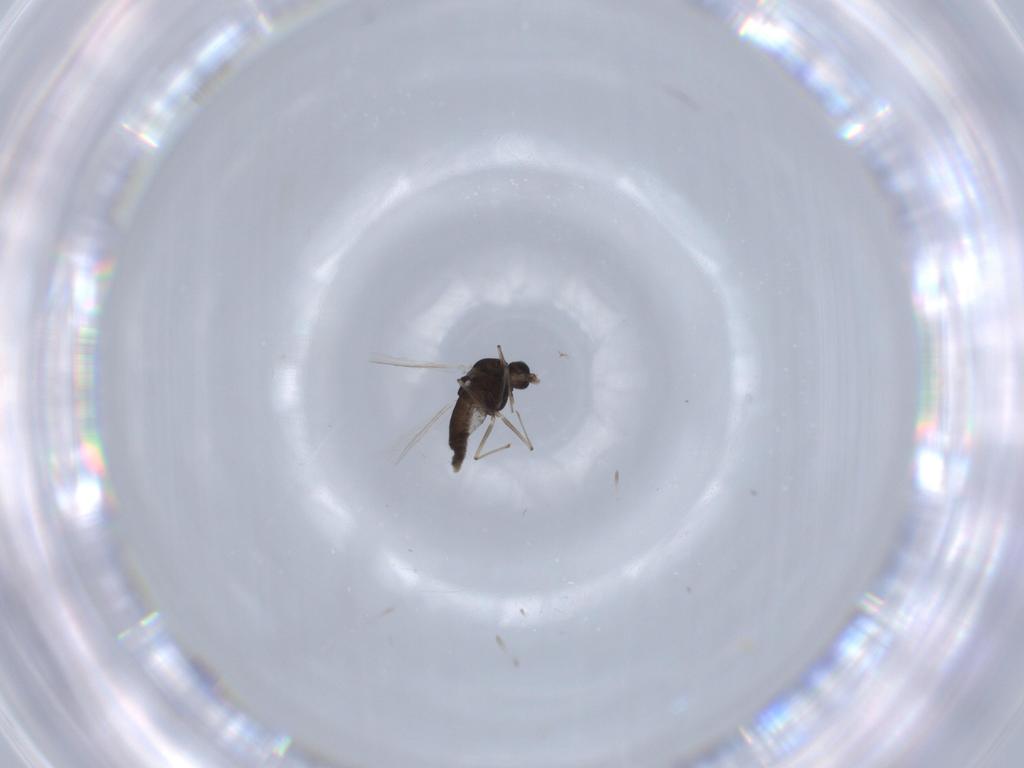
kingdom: Animalia
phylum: Arthropoda
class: Insecta
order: Diptera
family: Chironomidae
